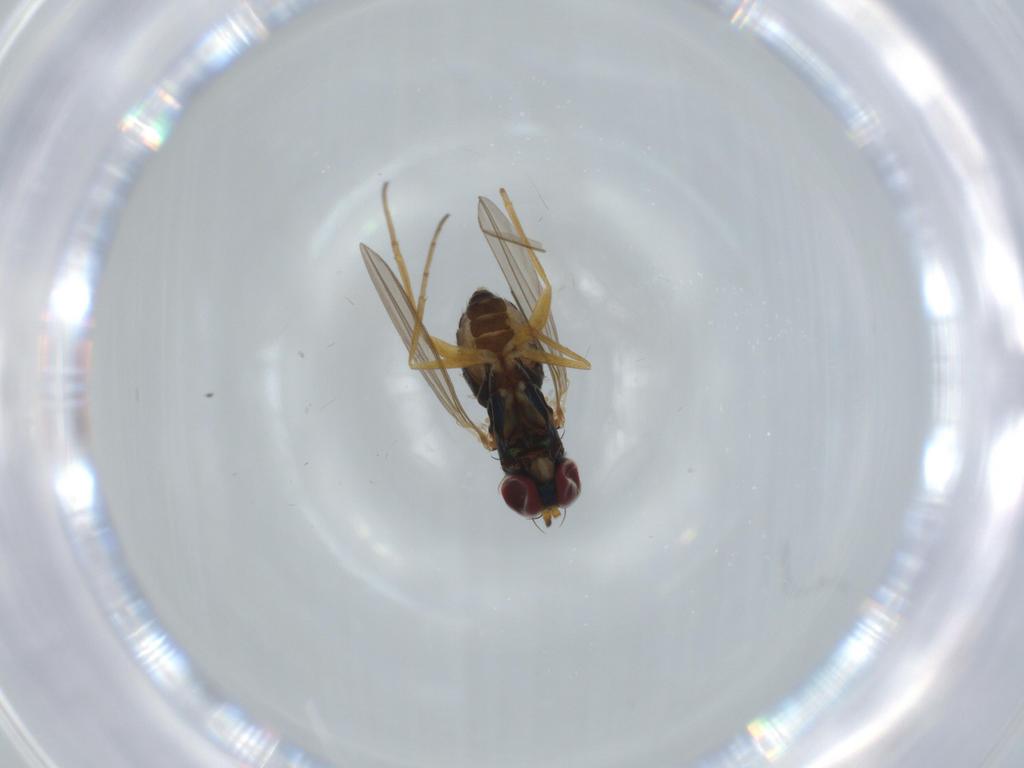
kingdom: Animalia
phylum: Arthropoda
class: Insecta
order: Diptera
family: Dolichopodidae
